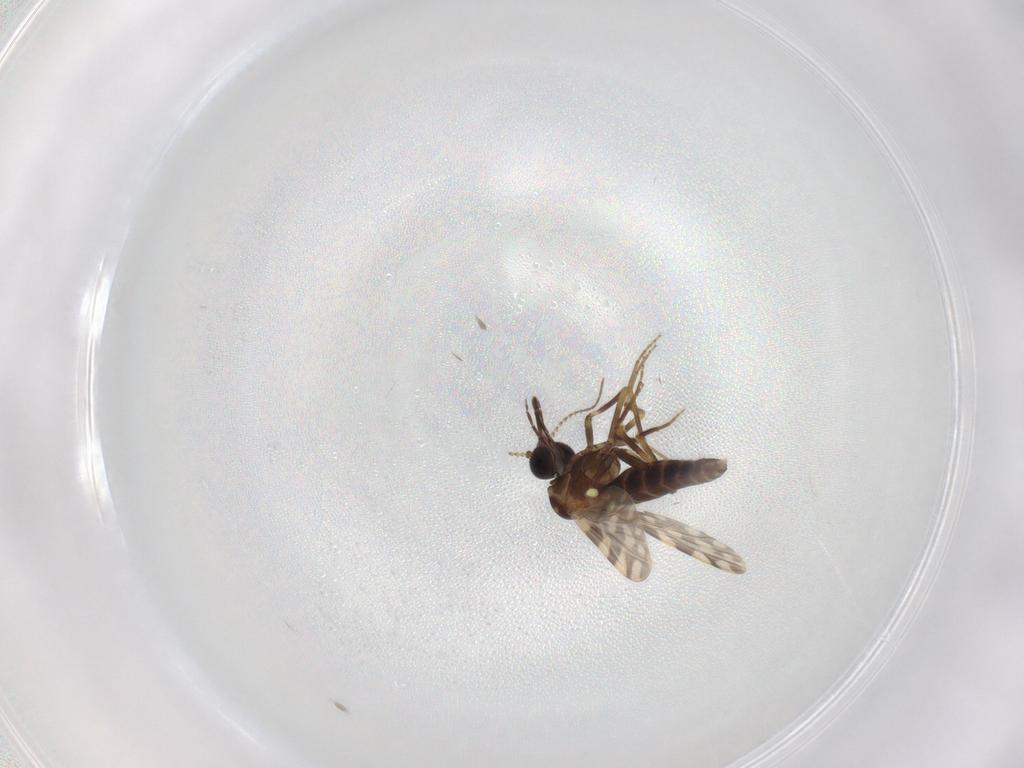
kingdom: Animalia
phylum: Arthropoda
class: Insecta
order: Diptera
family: Ceratopogonidae
